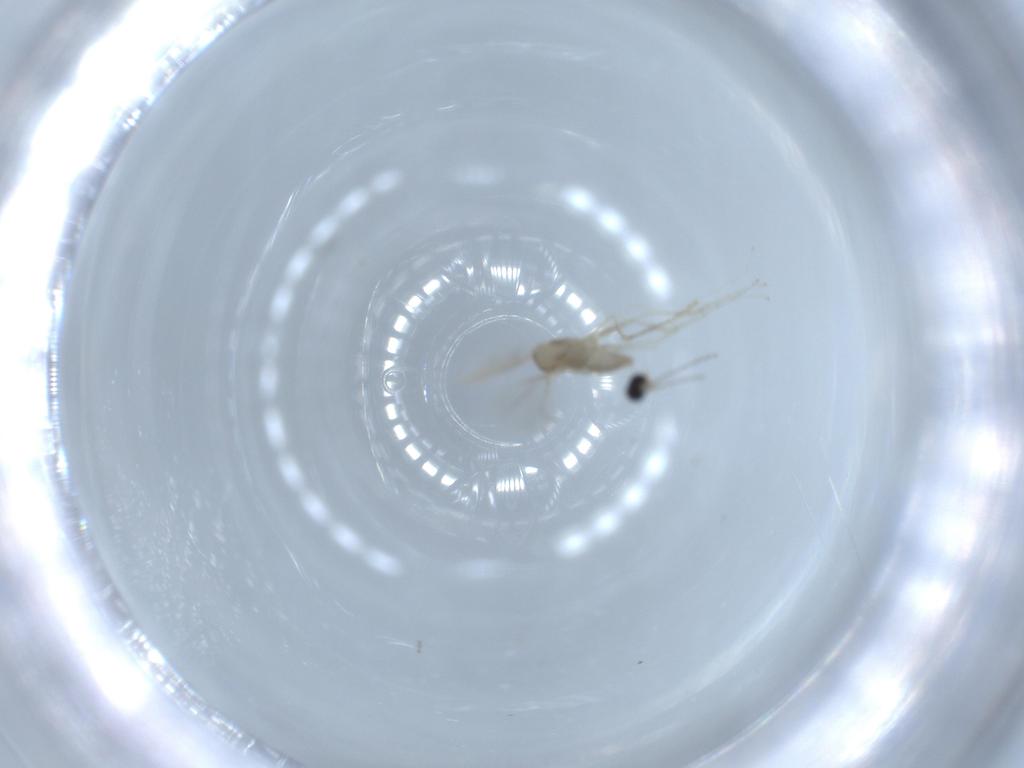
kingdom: Animalia
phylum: Arthropoda
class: Insecta
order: Diptera
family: Cecidomyiidae
